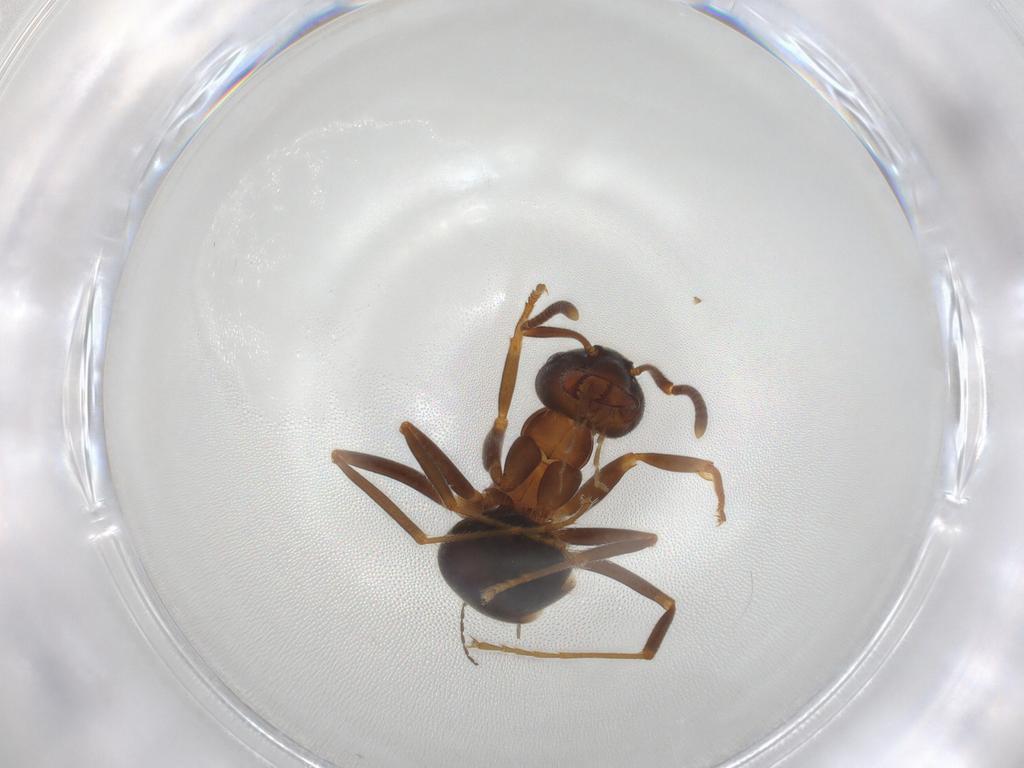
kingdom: Animalia
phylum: Arthropoda
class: Insecta
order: Hymenoptera
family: Formicidae
